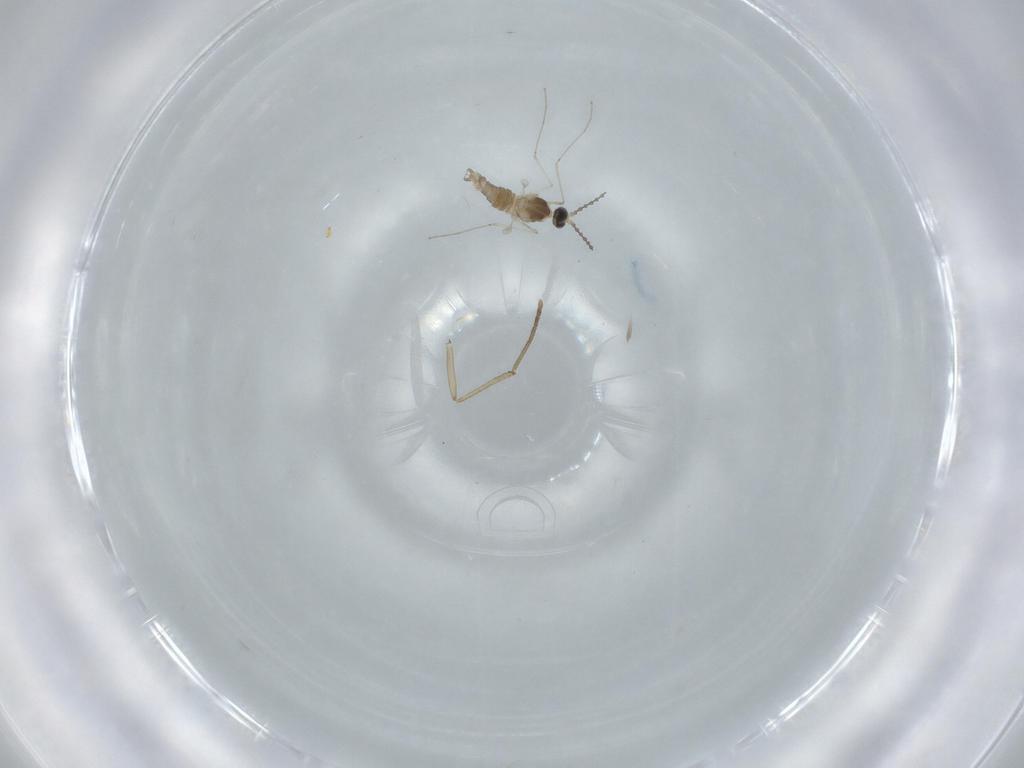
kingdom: Animalia
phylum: Arthropoda
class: Insecta
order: Diptera
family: Cecidomyiidae
